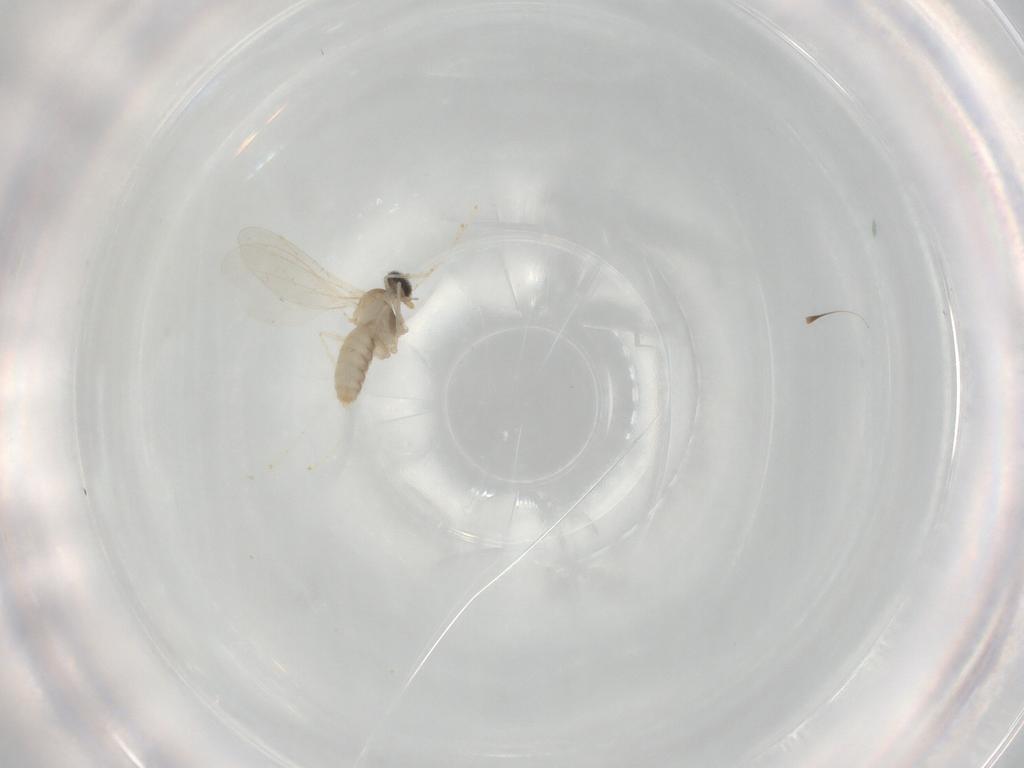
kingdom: Animalia
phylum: Arthropoda
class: Insecta
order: Diptera
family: Cecidomyiidae
